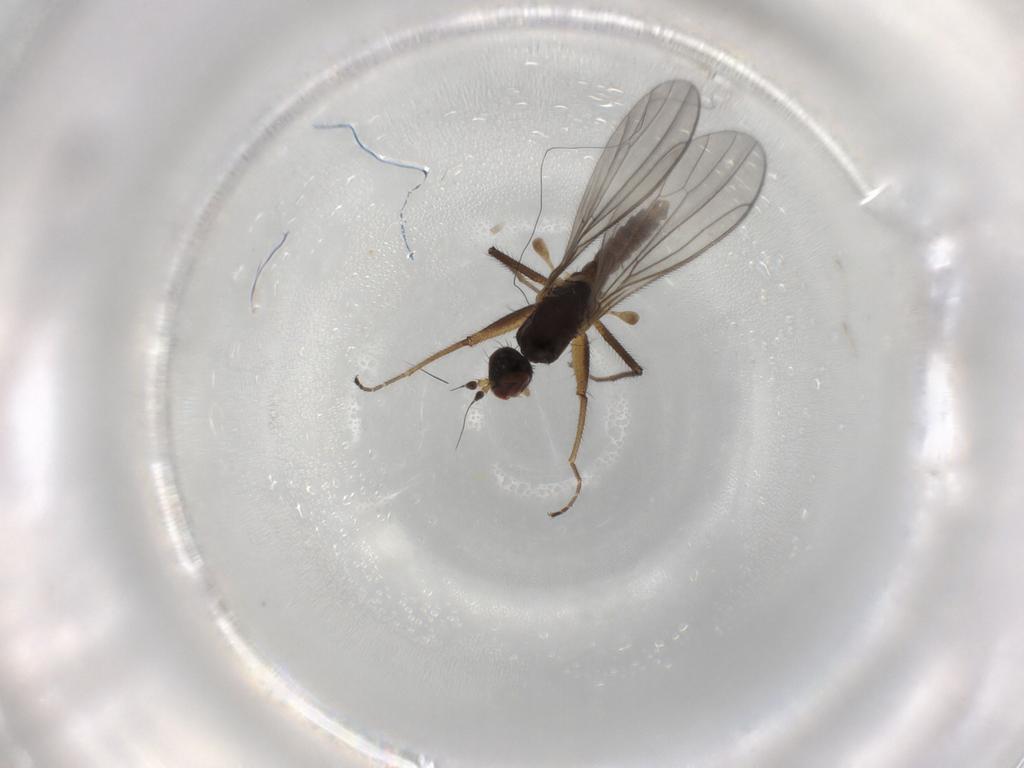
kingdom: Animalia
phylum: Arthropoda
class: Insecta
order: Diptera
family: Empididae
